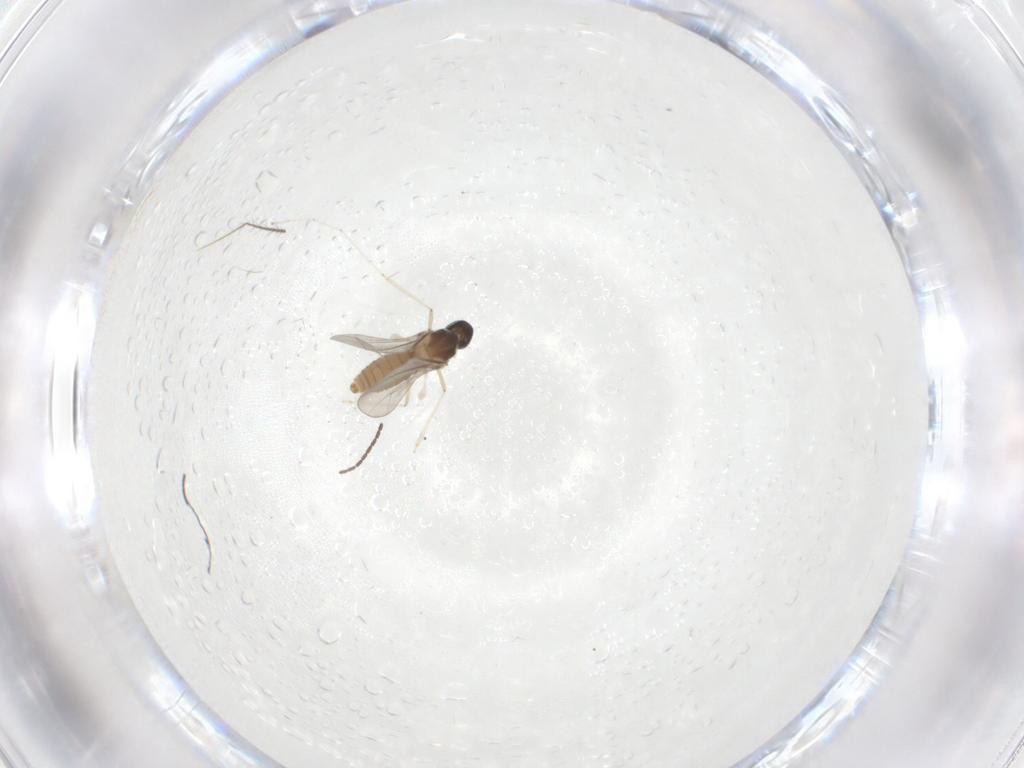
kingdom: Animalia
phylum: Arthropoda
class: Insecta
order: Diptera
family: Cecidomyiidae
